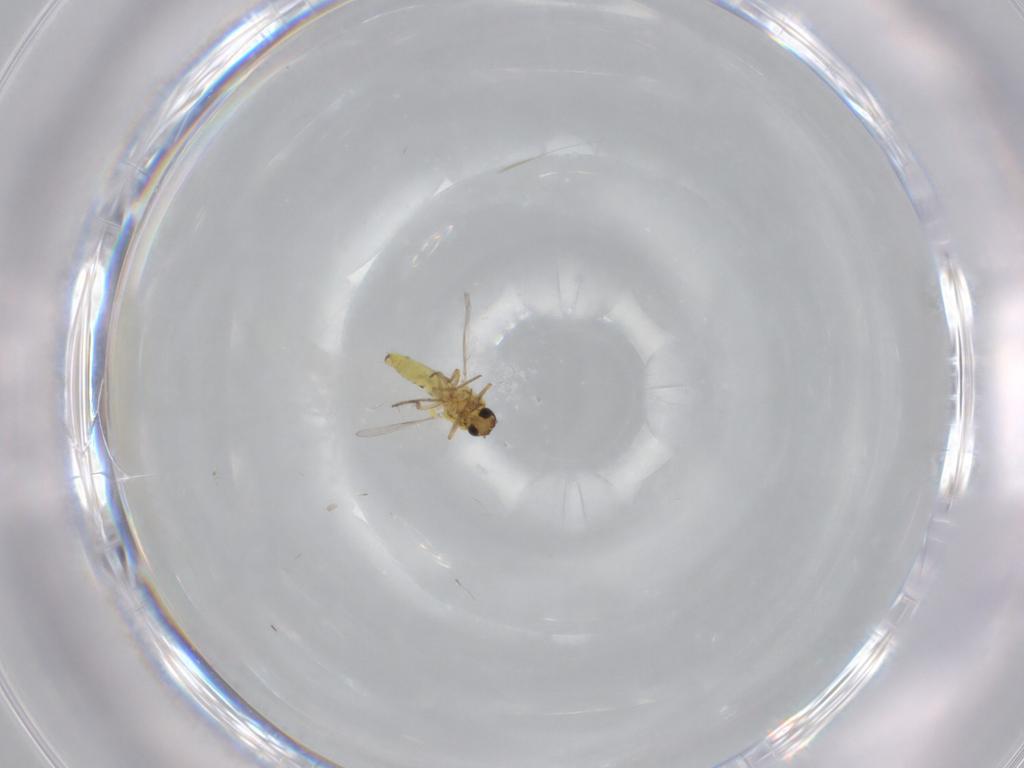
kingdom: Animalia
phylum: Arthropoda
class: Insecta
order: Diptera
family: Ceratopogonidae
